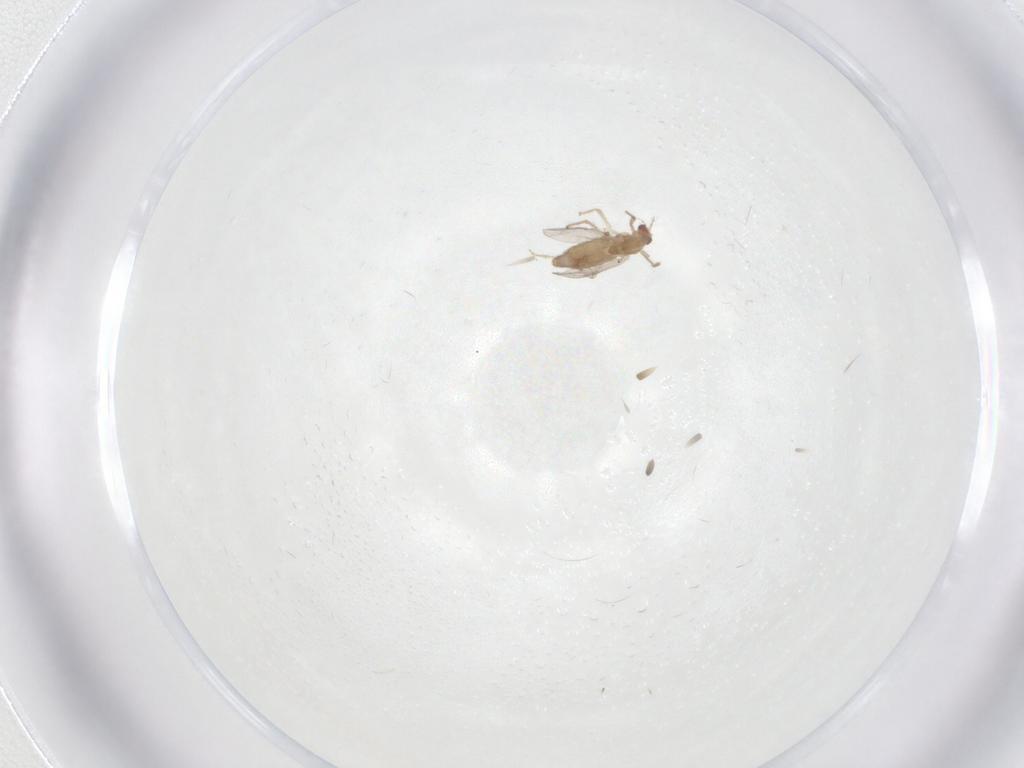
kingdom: Animalia
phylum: Arthropoda
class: Insecta
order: Diptera
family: Chironomidae
